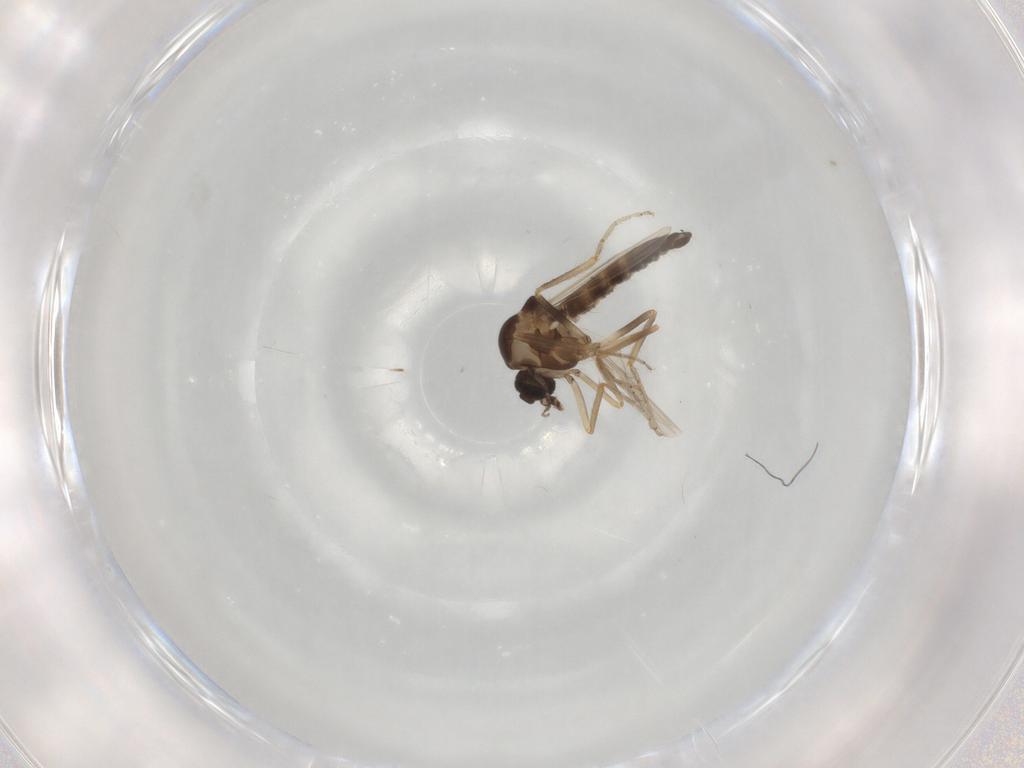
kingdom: Animalia
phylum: Arthropoda
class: Insecta
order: Diptera
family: Ceratopogonidae
